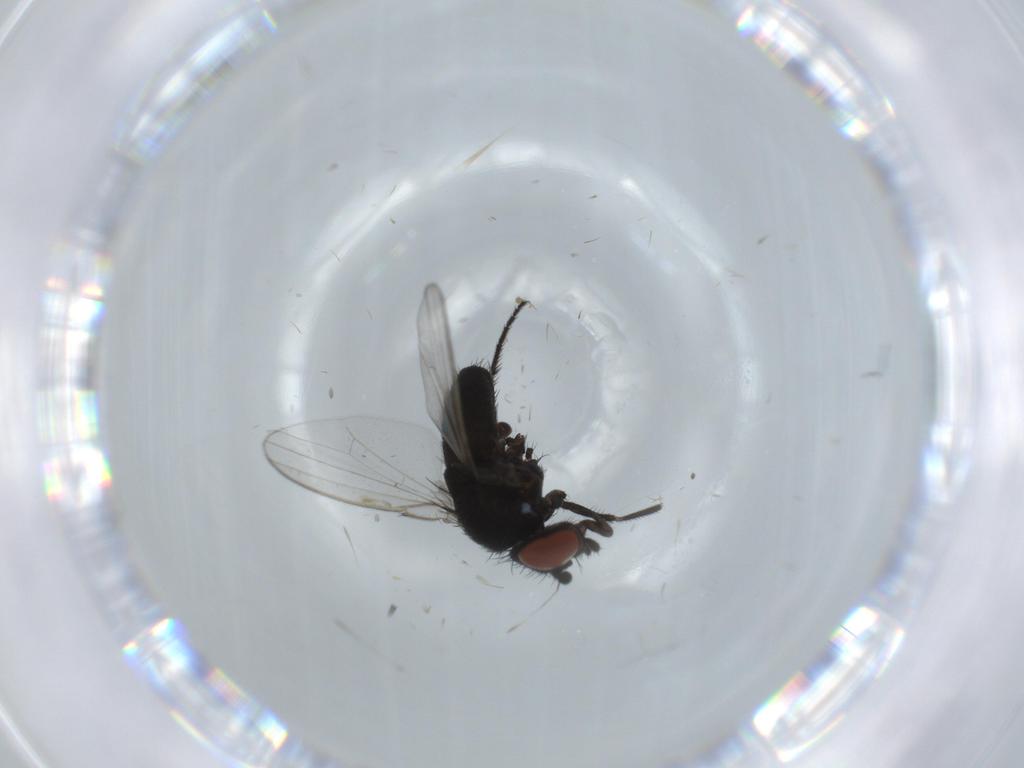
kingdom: Animalia
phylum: Arthropoda
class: Insecta
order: Diptera
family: Milichiidae
